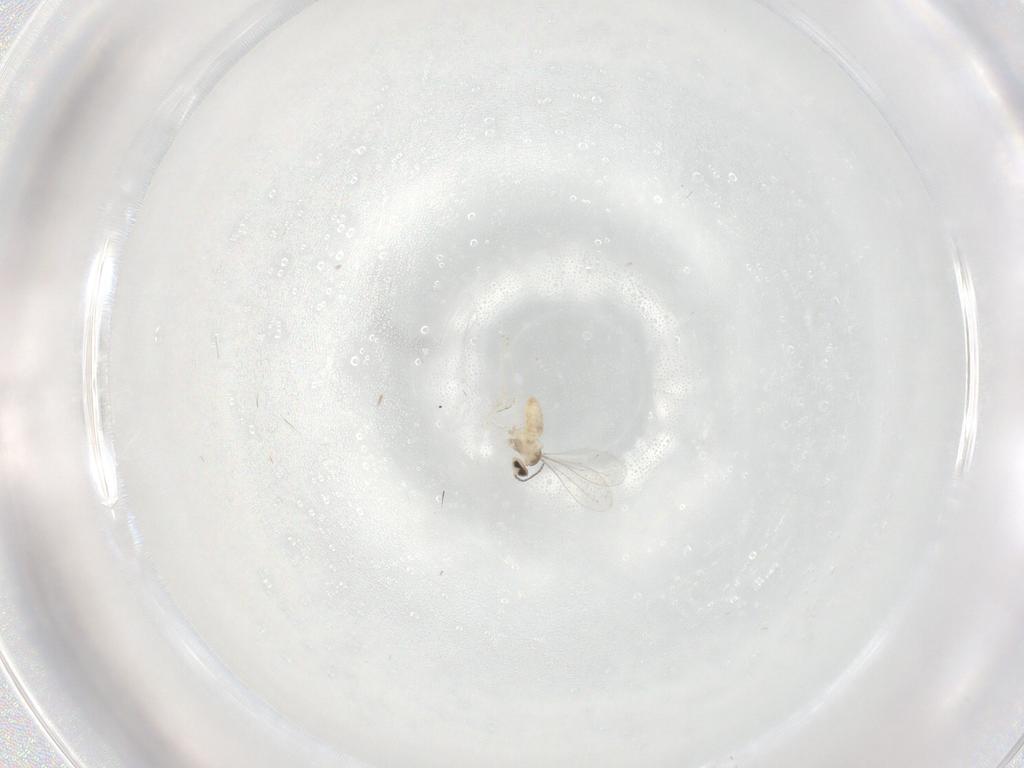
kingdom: Animalia
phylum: Arthropoda
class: Insecta
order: Diptera
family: Cecidomyiidae
